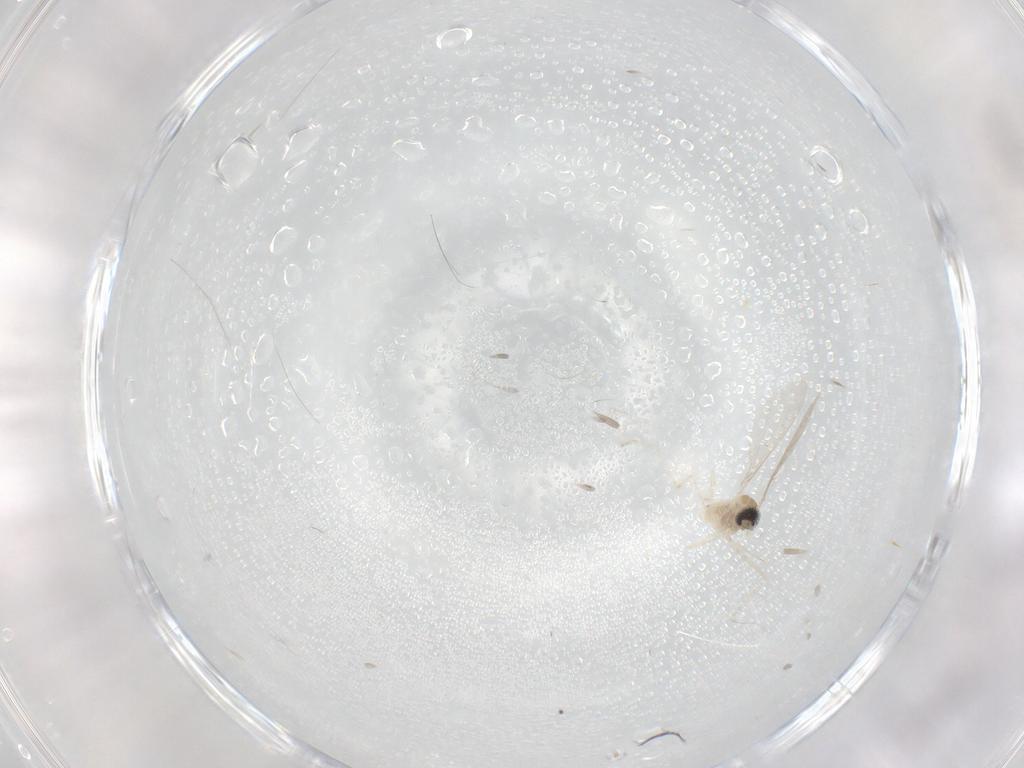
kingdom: Animalia
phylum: Arthropoda
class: Insecta
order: Diptera
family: Cecidomyiidae
